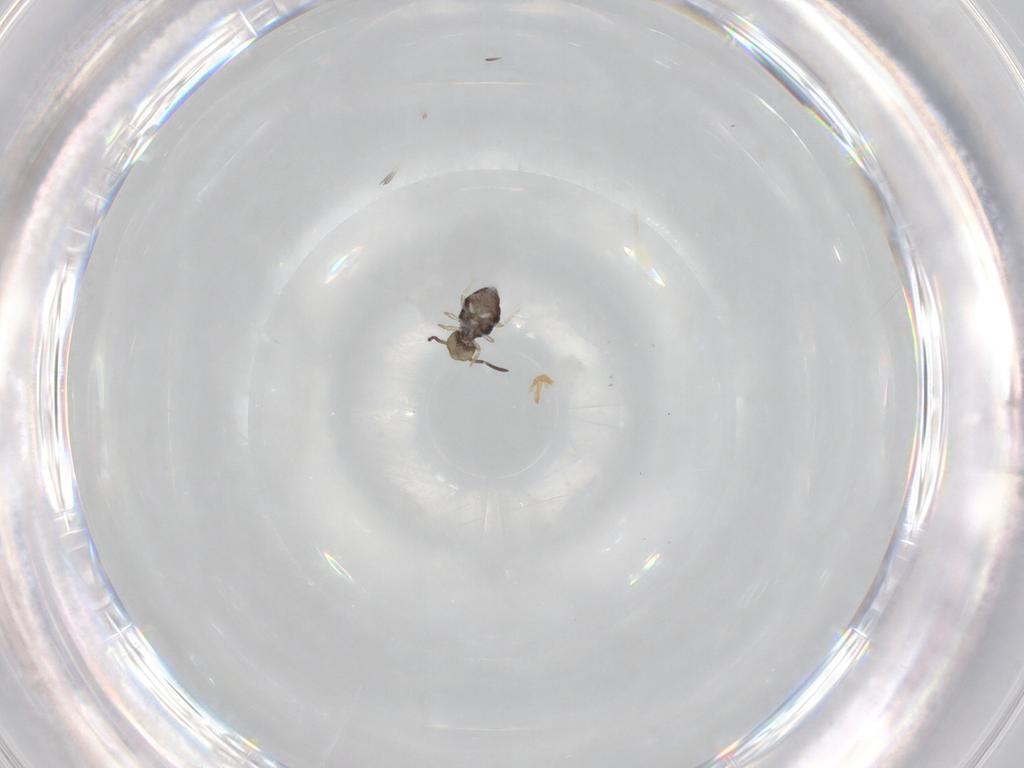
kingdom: Animalia
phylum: Arthropoda
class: Collembola
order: Symphypleona
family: Katiannidae
